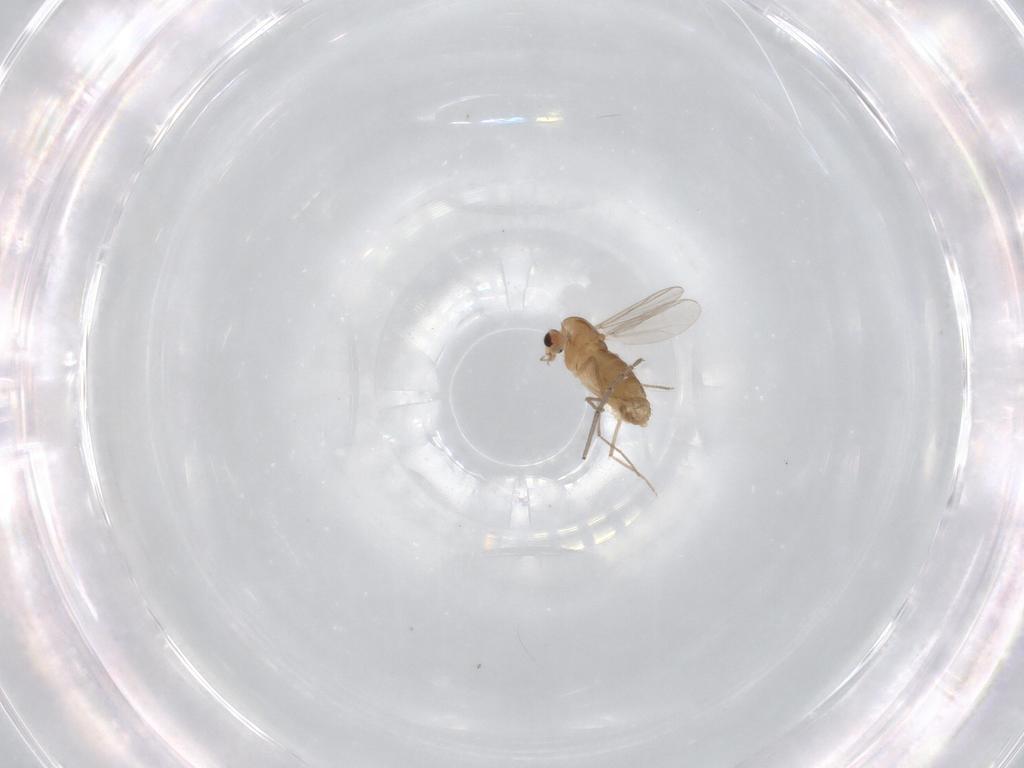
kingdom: Animalia
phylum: Arthropoda
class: Insecta
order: Diptera
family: Chironomidae
